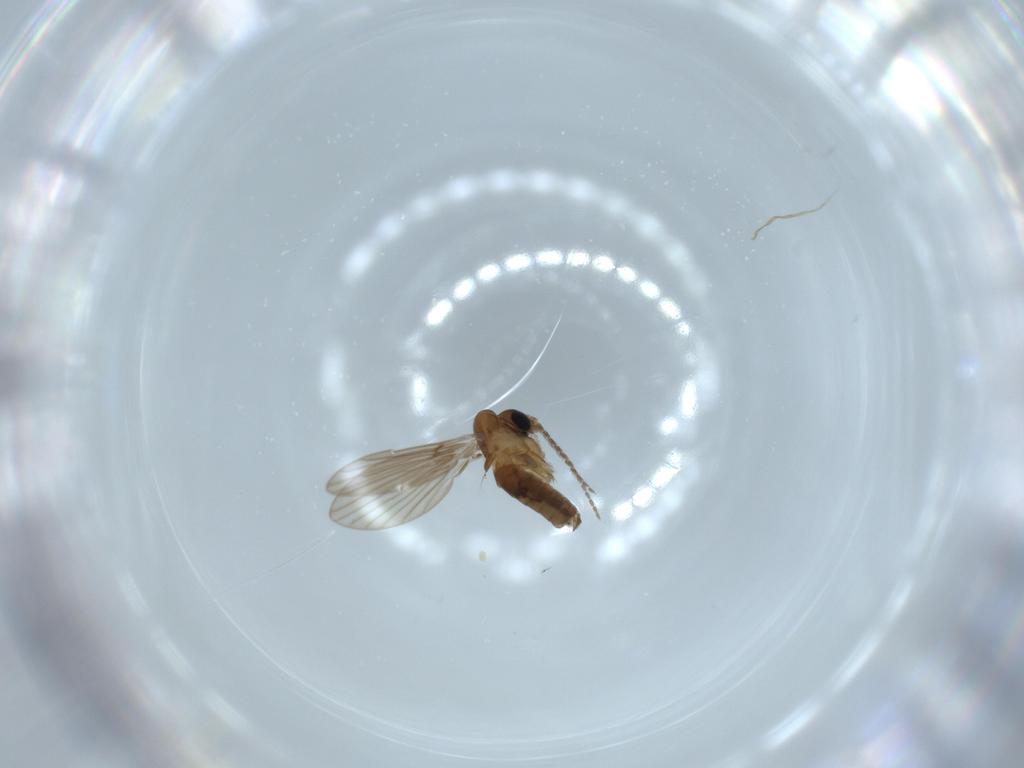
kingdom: Animalia
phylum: Arthropoda
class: Insecta
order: Diptera
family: Psychodidae
